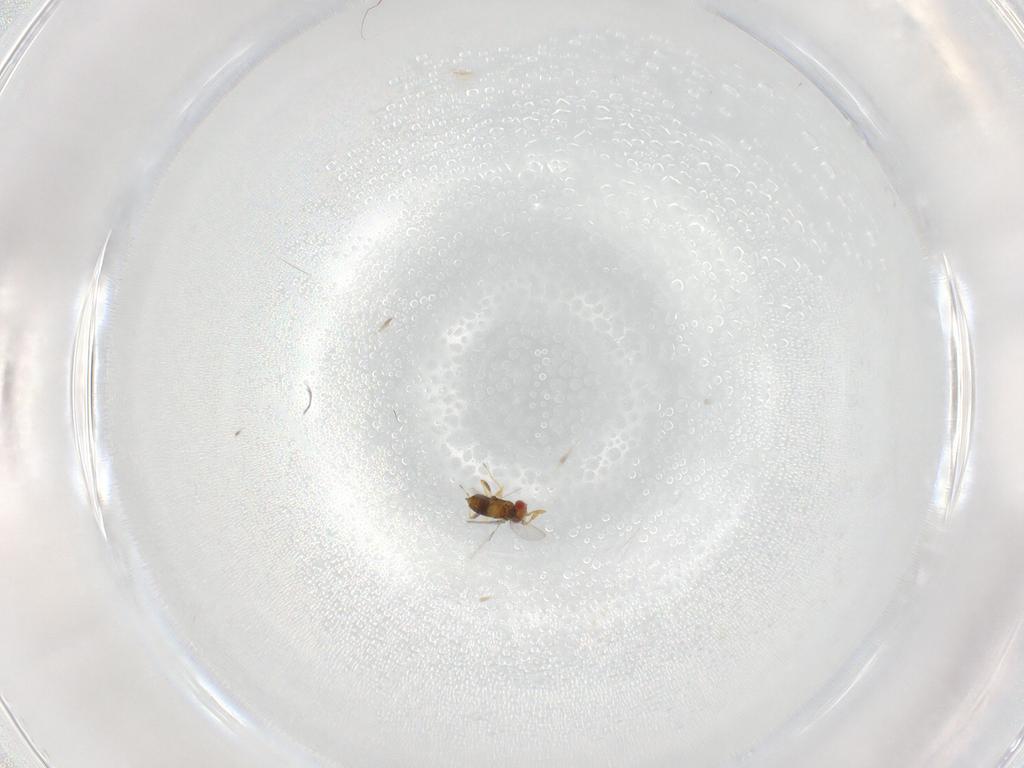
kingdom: Animalia
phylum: Arthropoda
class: Insecta
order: Hymenoptera
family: Trichogrammatidae
